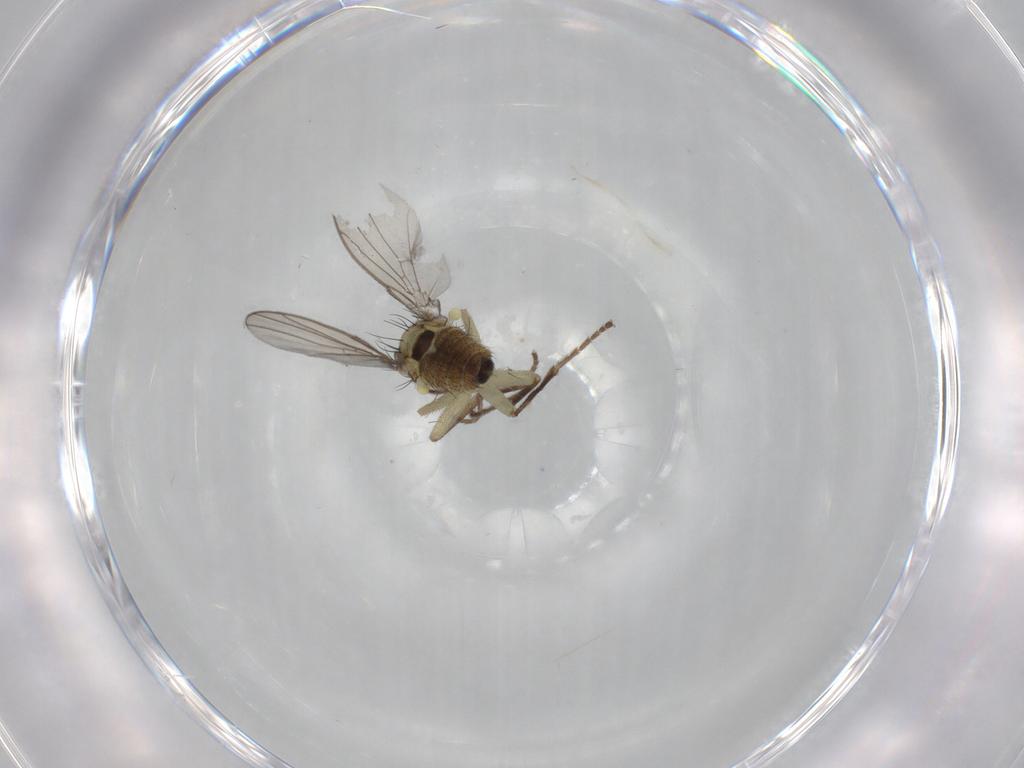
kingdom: Animalia
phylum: Arthropoda
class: Insecta
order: Diptera
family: Agromyzidae
